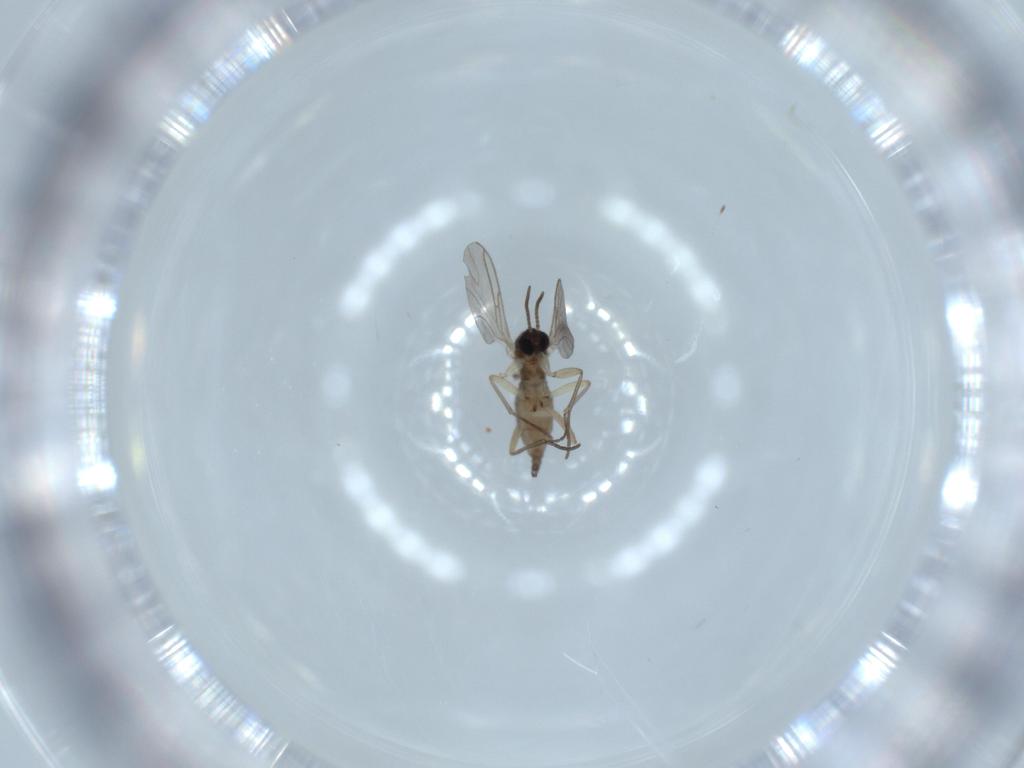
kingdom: Animalia
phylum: Arthropoda
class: Insecta
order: Diptera
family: Sciaridae
